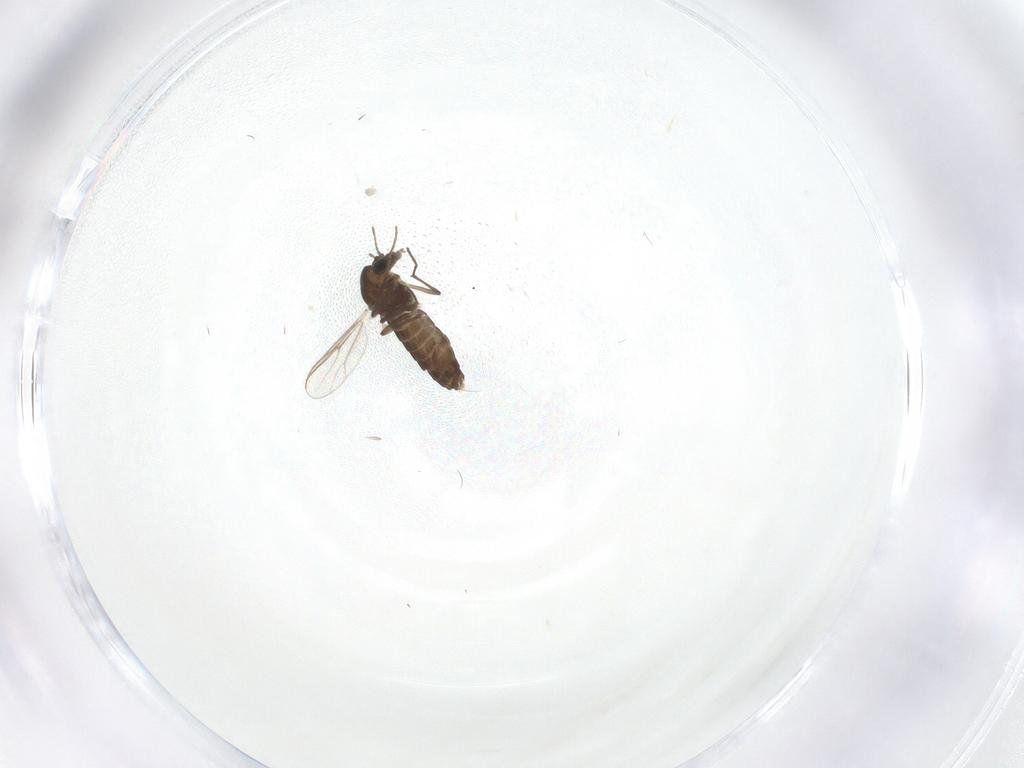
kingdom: Animalia
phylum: Arthropoda
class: Insecta
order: Diptera
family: Chironomidae
